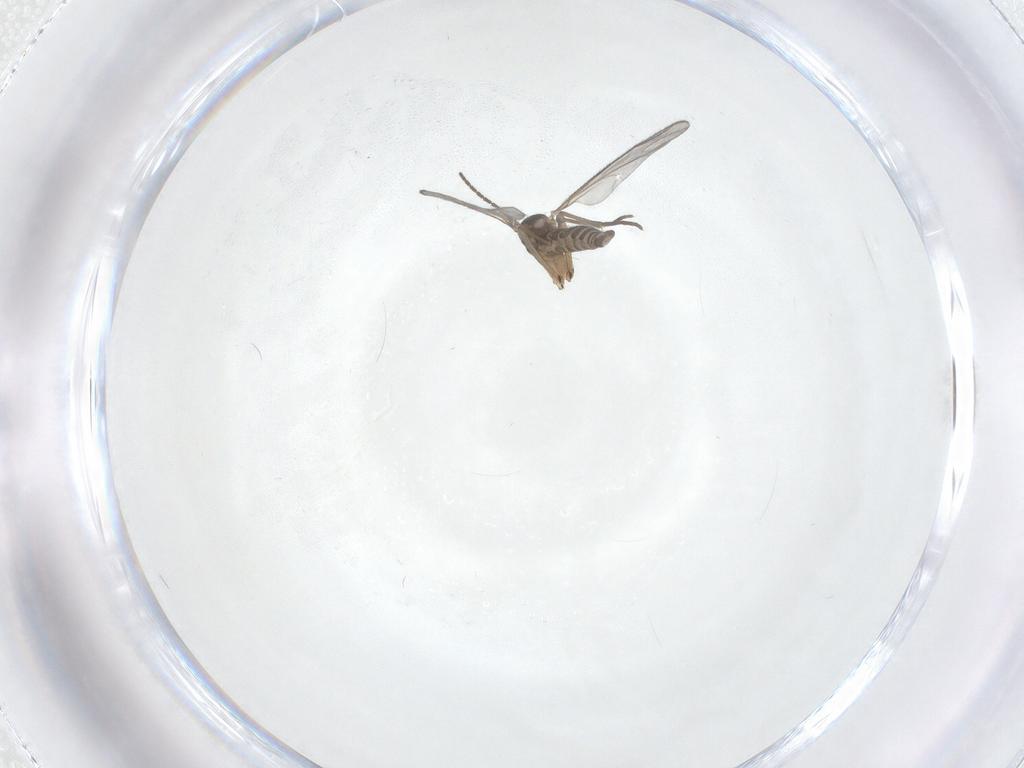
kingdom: Animalia
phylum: Arthropoda
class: Insecta
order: Diptera
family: Sciaridae
